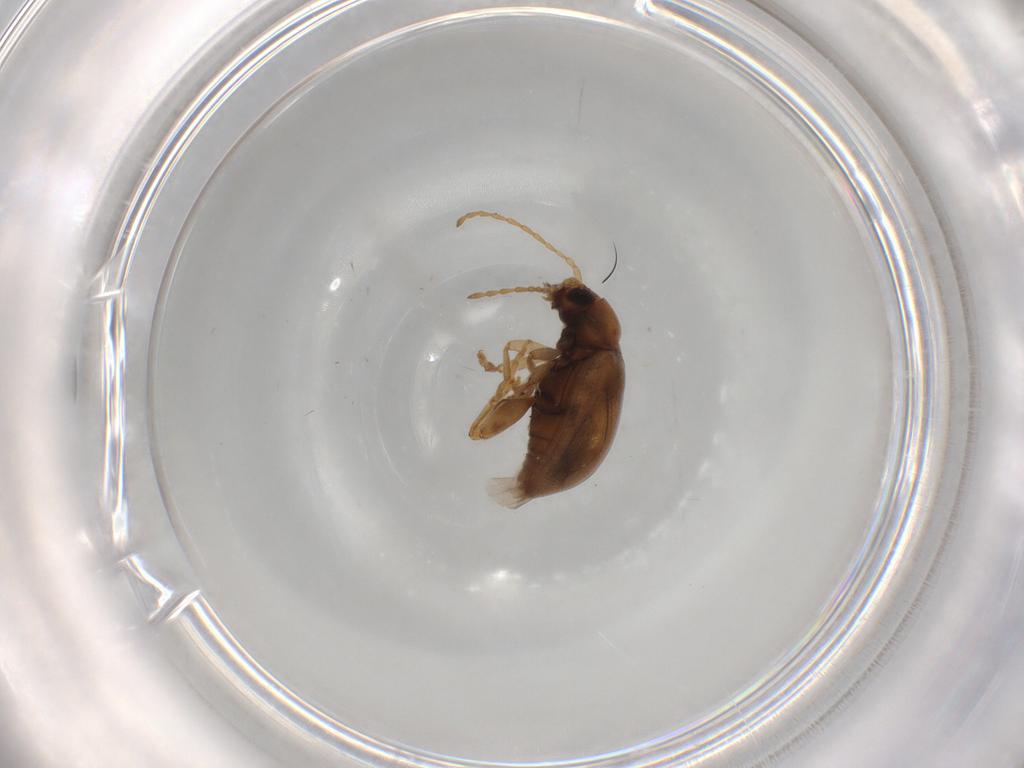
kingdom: Animalia
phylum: Arthropoda
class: Insecta
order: Coleoptera
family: Chrysomelidae
